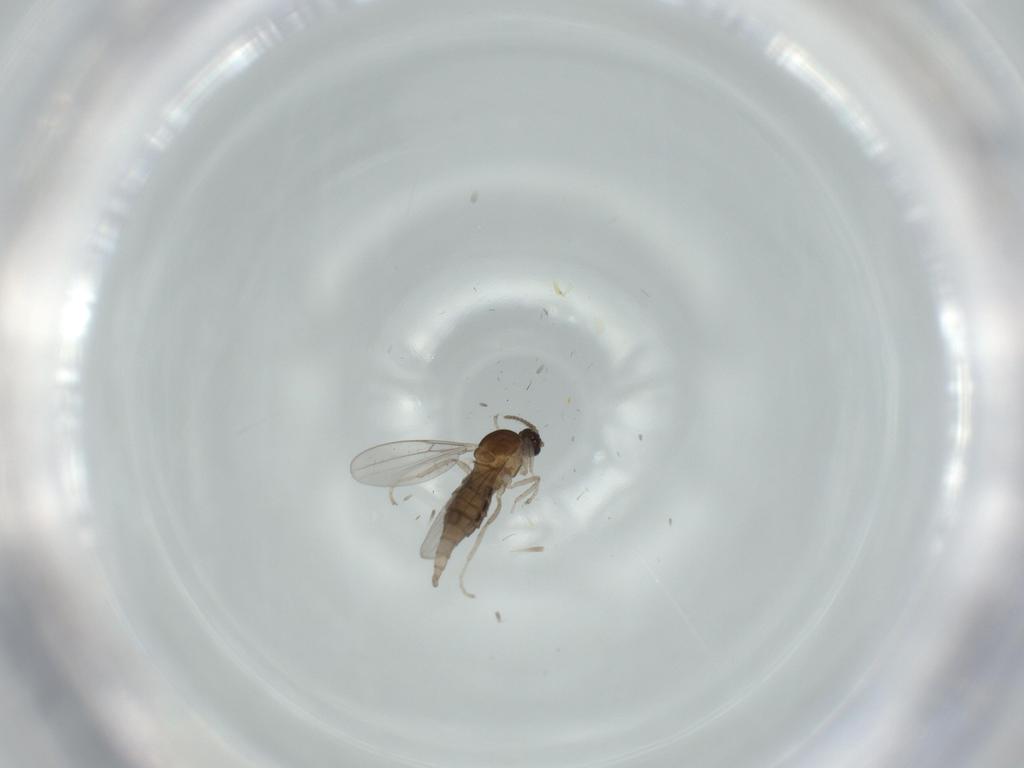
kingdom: Animalia
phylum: Arthropoda
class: Insecta
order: Diptera
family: Cecidomyiidae
